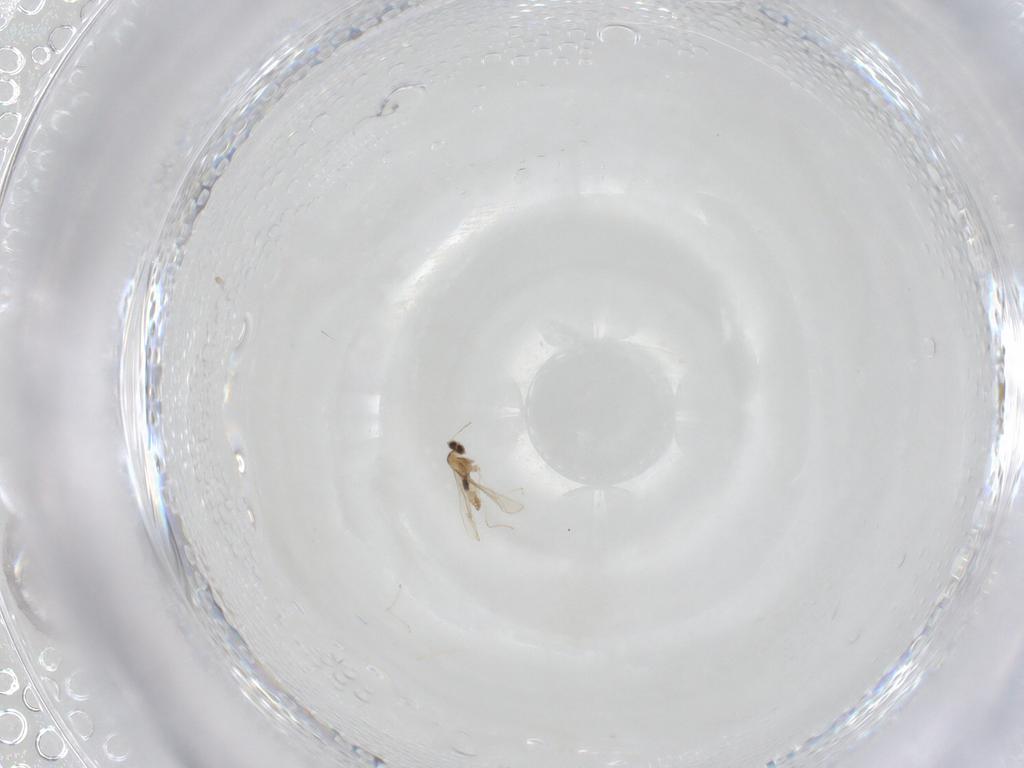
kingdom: Animalia
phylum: Arthropoda
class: Insecta
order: Diptera
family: Cecidomyiidae
